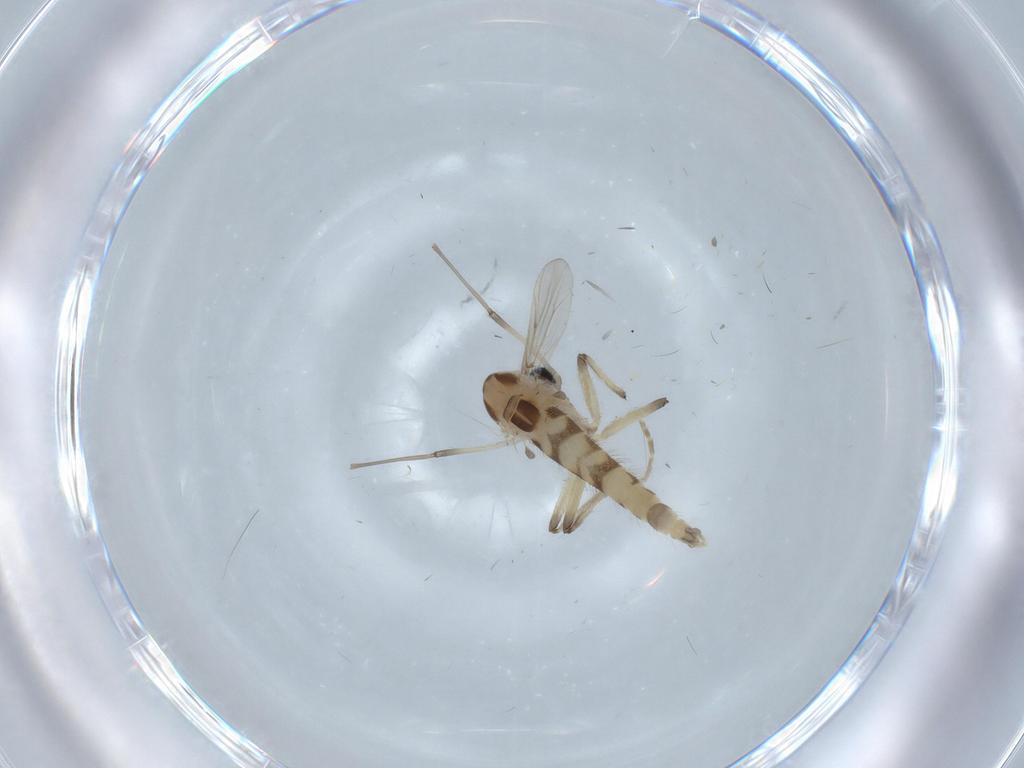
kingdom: Animalia
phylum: Arthropoda
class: Insecta
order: Diptera
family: Chironomidae
